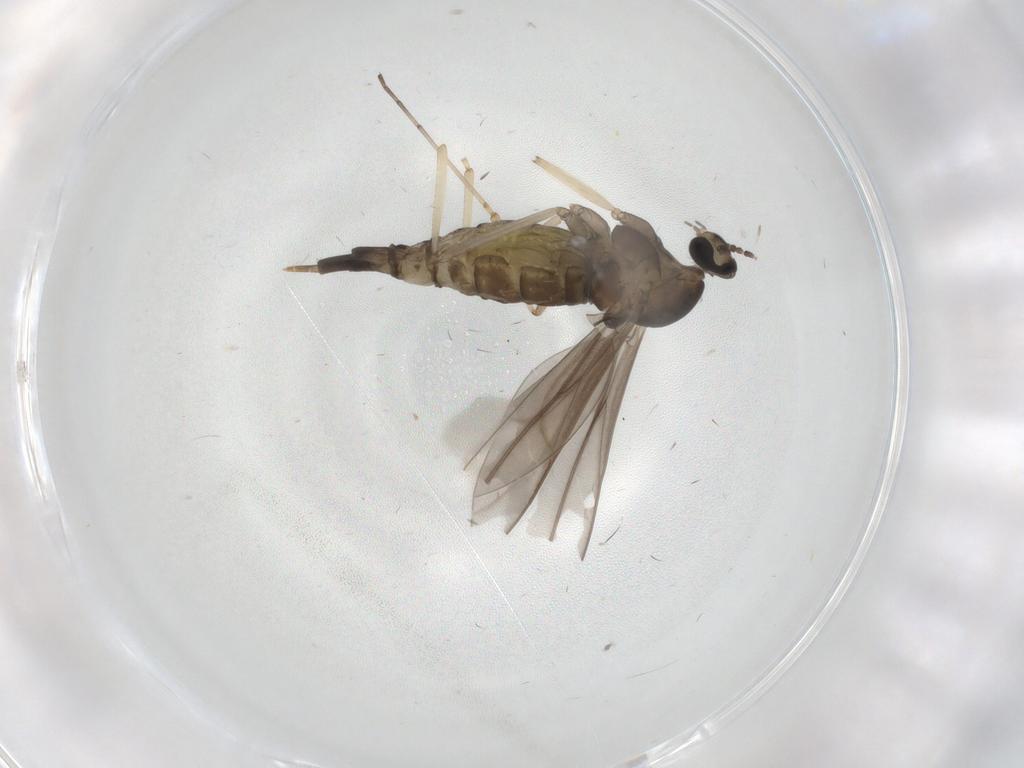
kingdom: Animalia
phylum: Arthropoda
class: Insecta
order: Diptera
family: Cecidomyiidae
